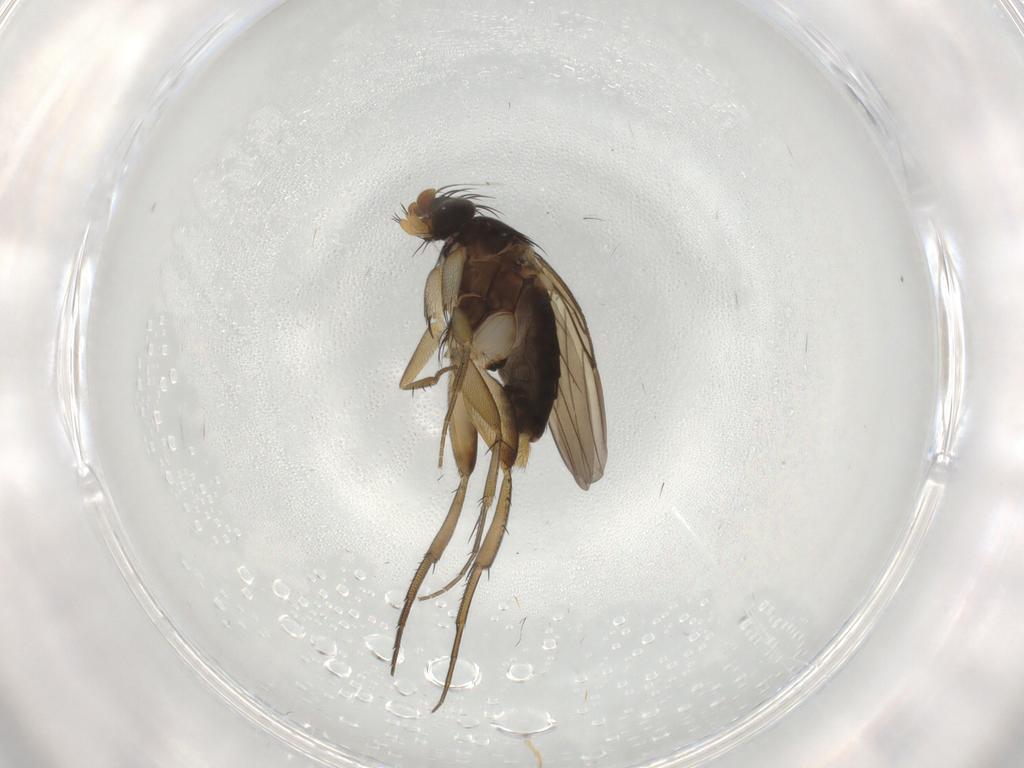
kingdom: Animalia
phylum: Arthropoda
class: Insecta
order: Diptera
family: Phoridae
